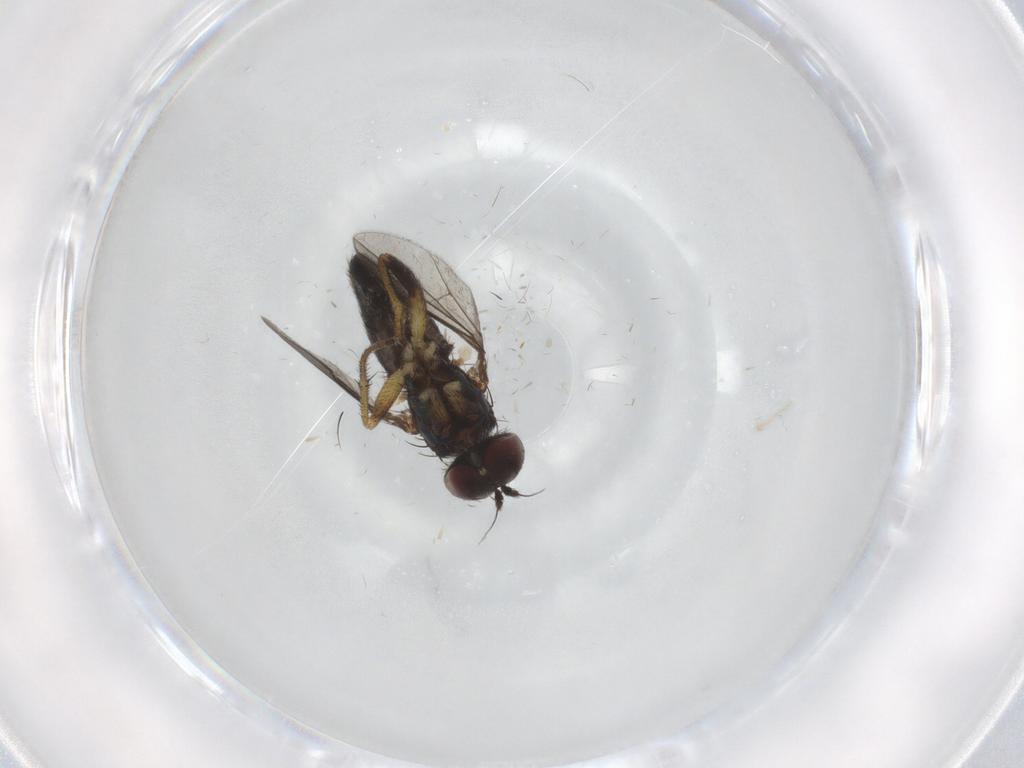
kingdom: Animalia
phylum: Arthropoda
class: Insecta
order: Diptera
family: Dolichopodidae
